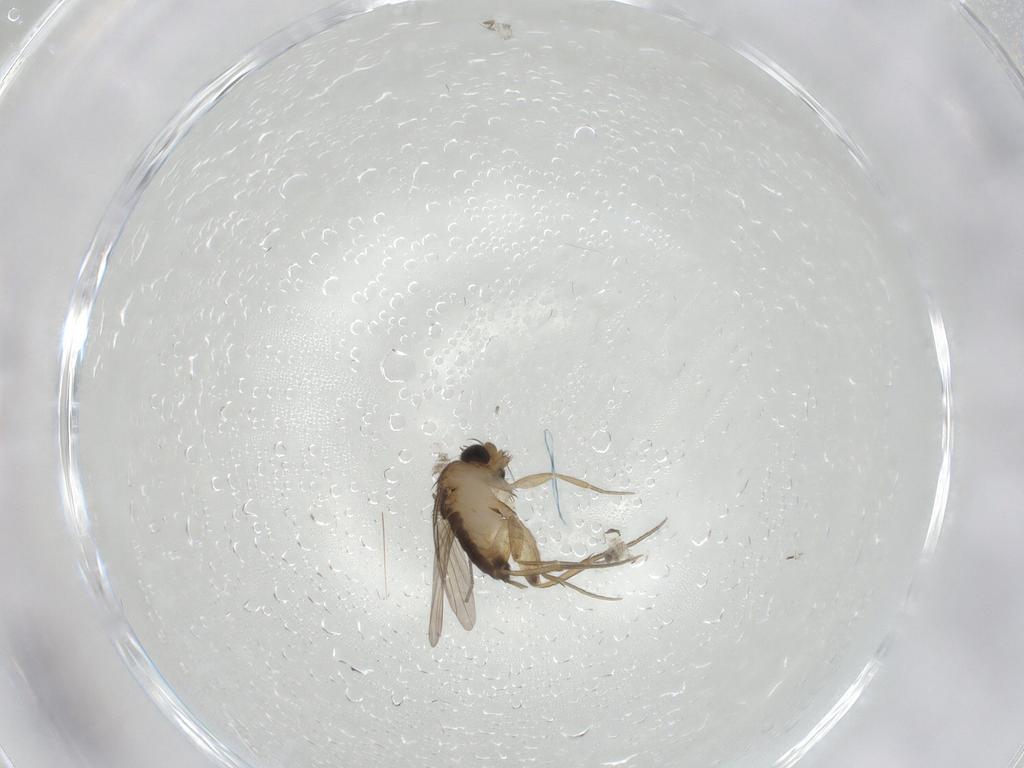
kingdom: Animalia
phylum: Arthropoda
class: Insecta
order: Diptera
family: Phoridae
